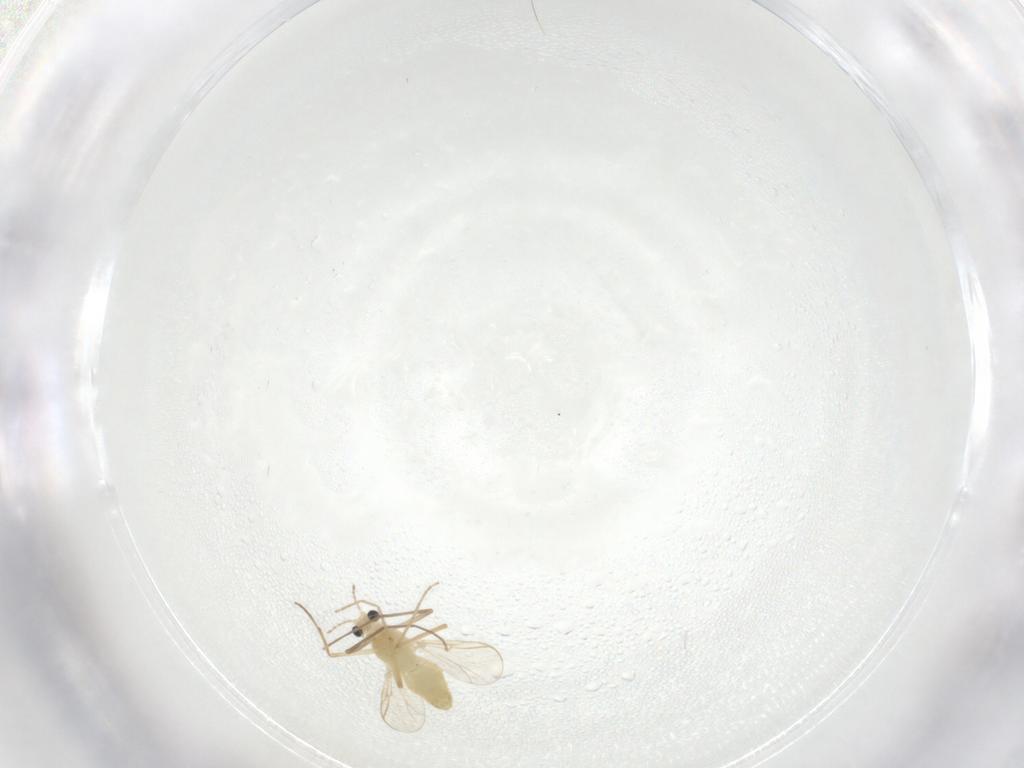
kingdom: Animalia
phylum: Arthropoda
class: Insecta
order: Diptera
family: Chironomidae
